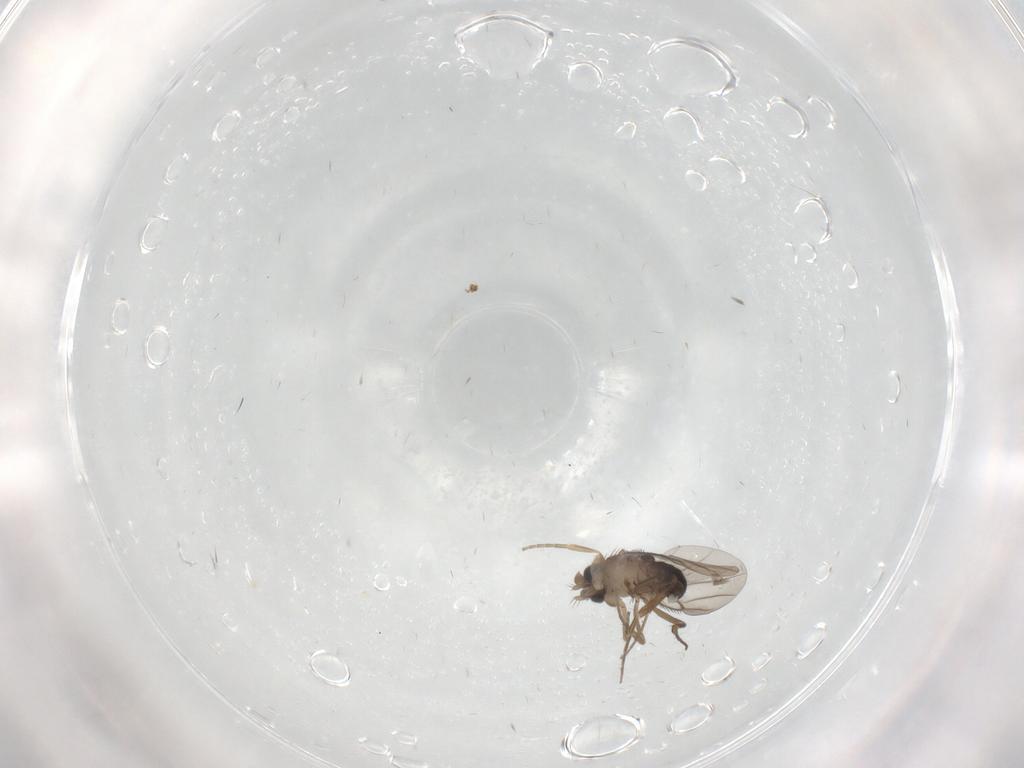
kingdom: Animalia
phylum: Arthropoda
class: Insecta
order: Diptera
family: Phoridae
